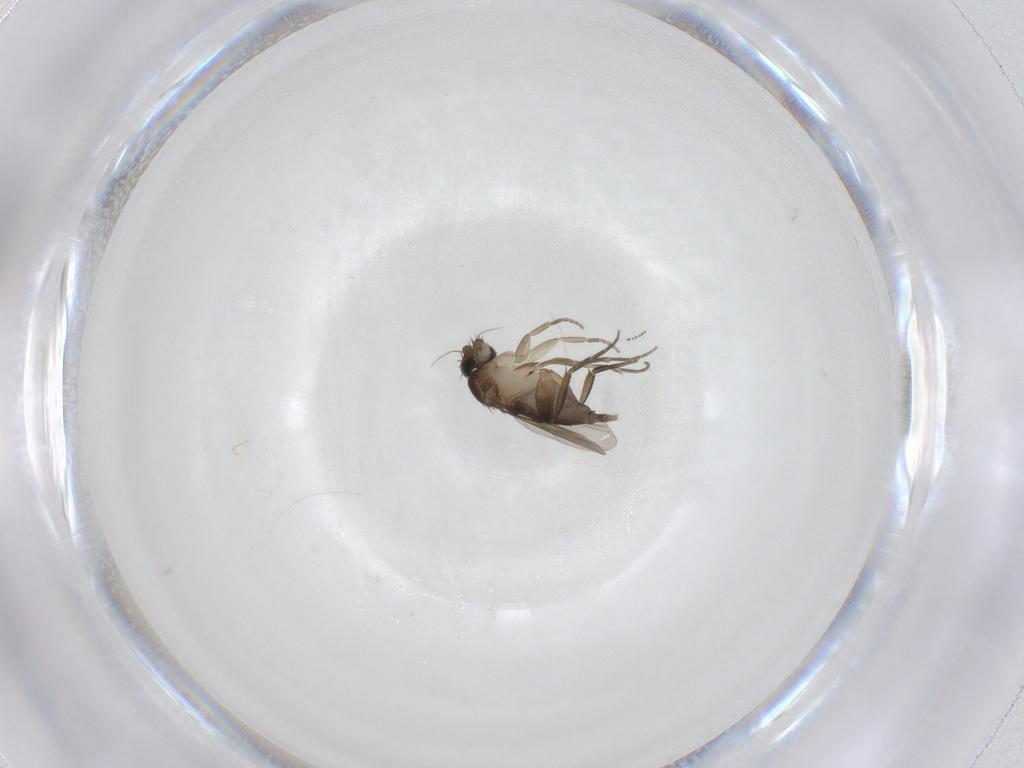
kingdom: Animalia
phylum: Arthropoda
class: Insecta
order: Diptera
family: Phoridae
